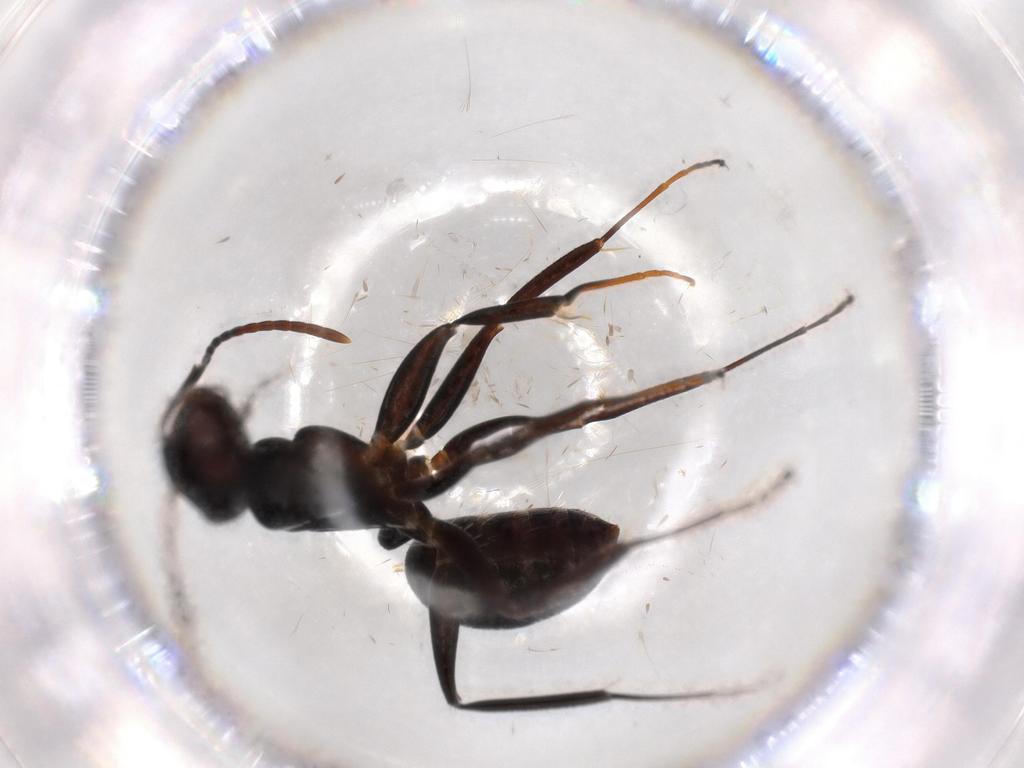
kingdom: Animalia
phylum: Arthropoda
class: Insecta
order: Hymenoptera
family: Formicidae
